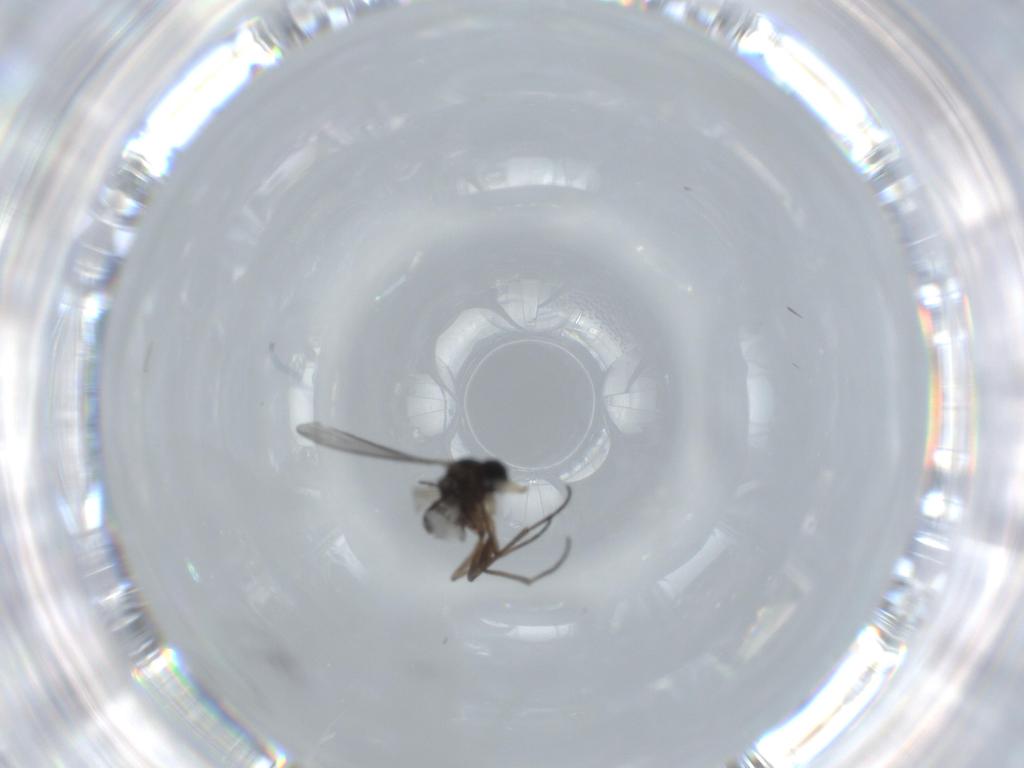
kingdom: Animalia
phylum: Arthropoda
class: Insecta
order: Diptera
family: Sciaridae
